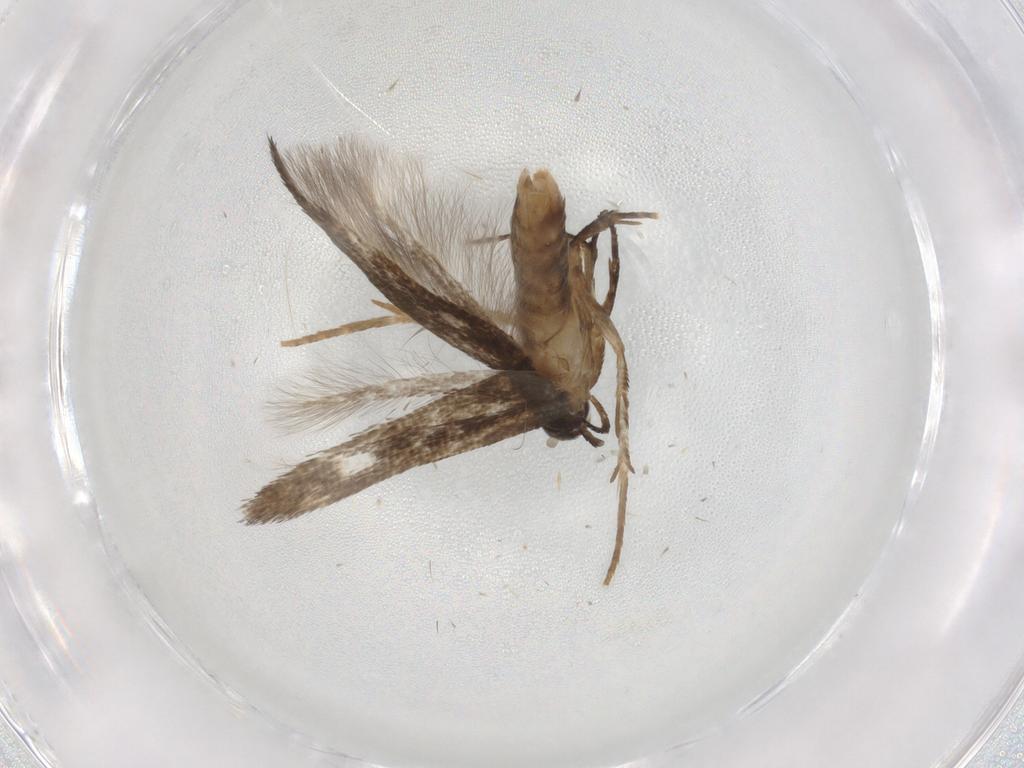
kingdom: Animalia
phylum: Arthropoda
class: Insecta
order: Lepidoptera
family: Cosmopterigidae
